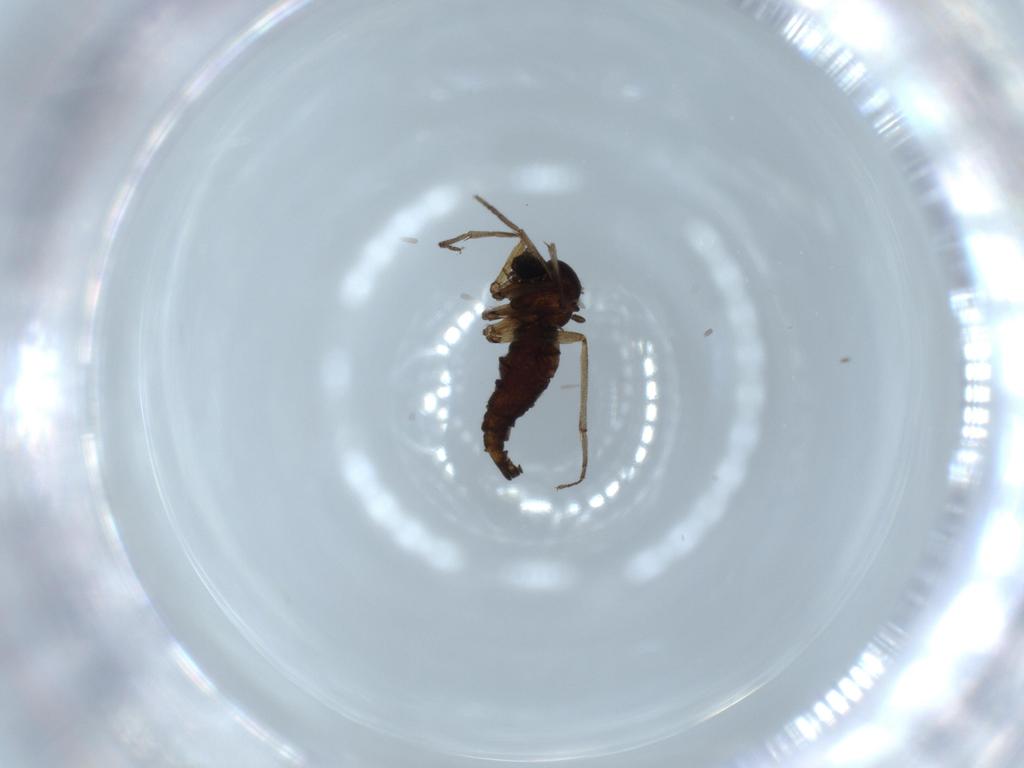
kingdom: Animalia
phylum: Arthropoda
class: Insecta
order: Diptera
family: Sciaridae
